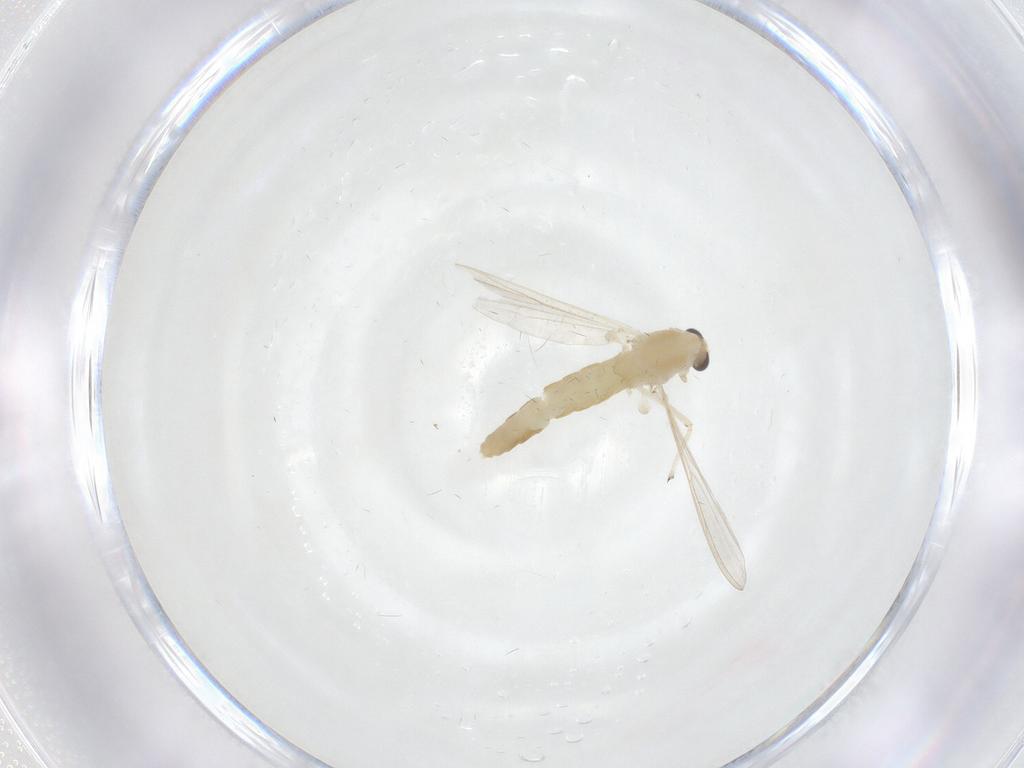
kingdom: Animalia
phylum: Arthropoda
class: Insecta
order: Diptera
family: Chironomidae
